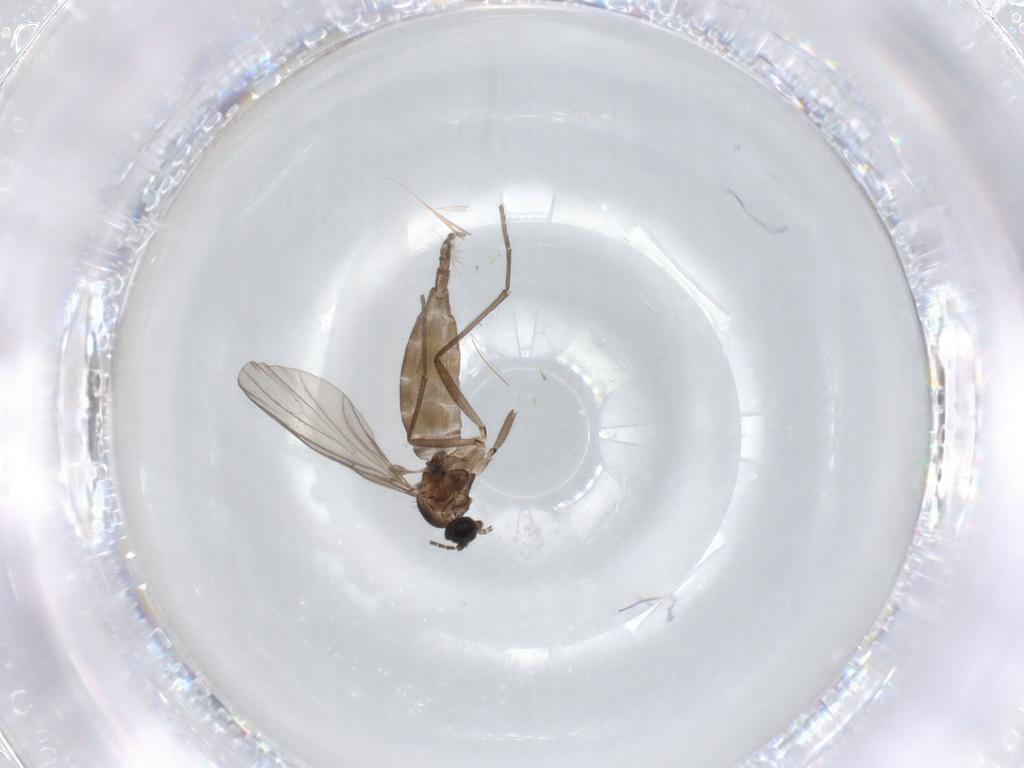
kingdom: Animalia
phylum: Arthropoda
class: Insecta
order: Diptera
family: Sciaridae
